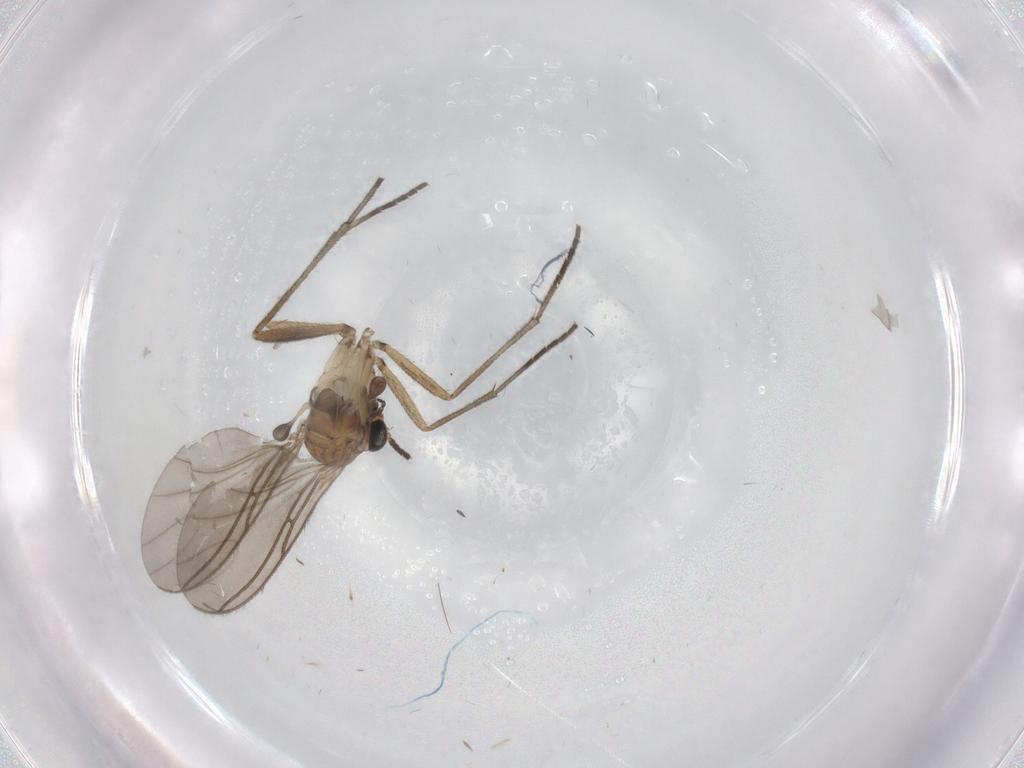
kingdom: Animalia
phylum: Arthropoda
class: Insecta
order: Diptera
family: Sciaridae
